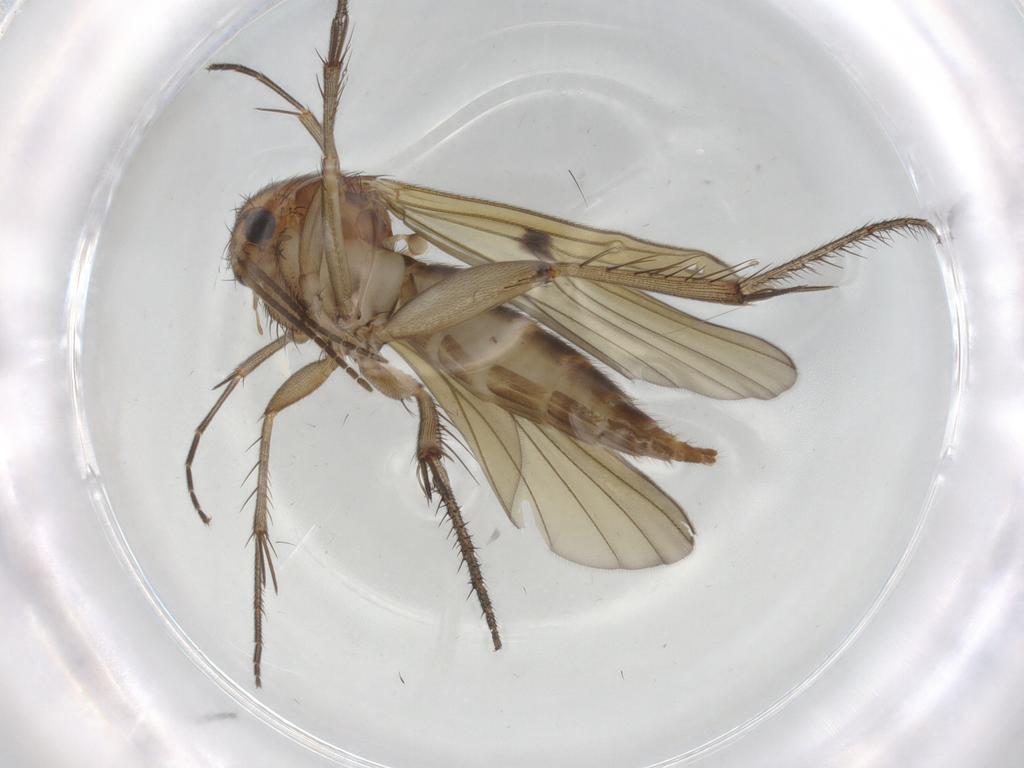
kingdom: Animalia
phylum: Arthropoda
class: Insecta
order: Diptera
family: Mycetophilidae
